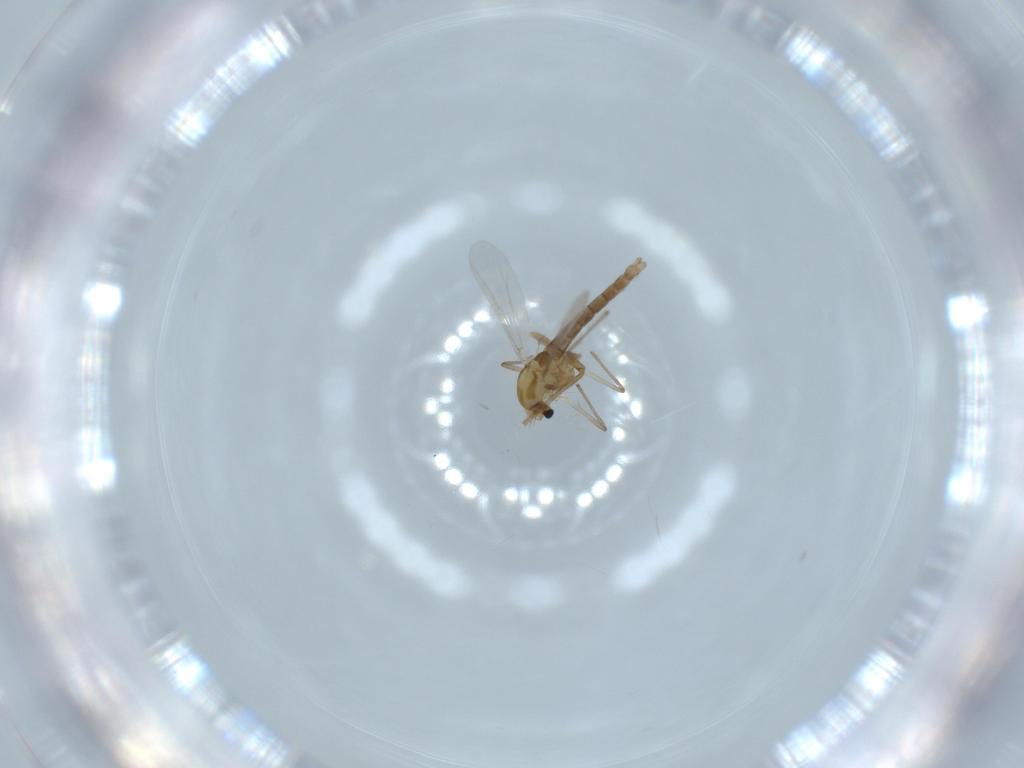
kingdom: Animalia
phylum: Arthropoda
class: Insecta
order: Diptera
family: Chironomidae
